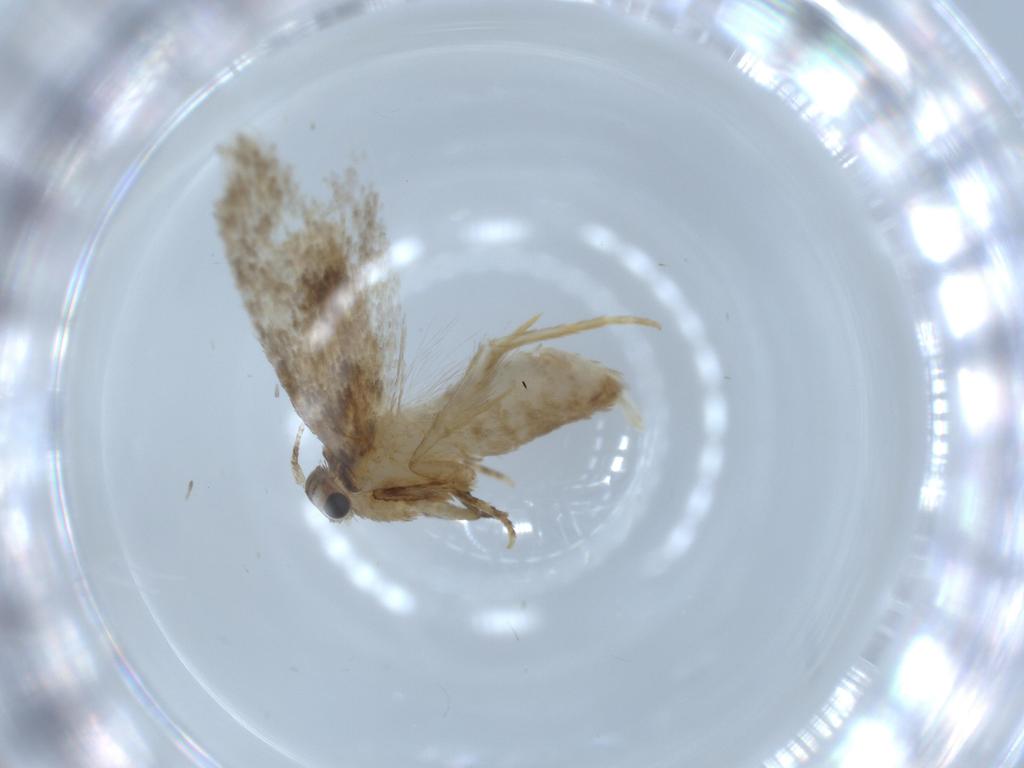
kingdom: Animalia
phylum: Arthropoda
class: Insecta
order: Lepidoptera
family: Tineidae
